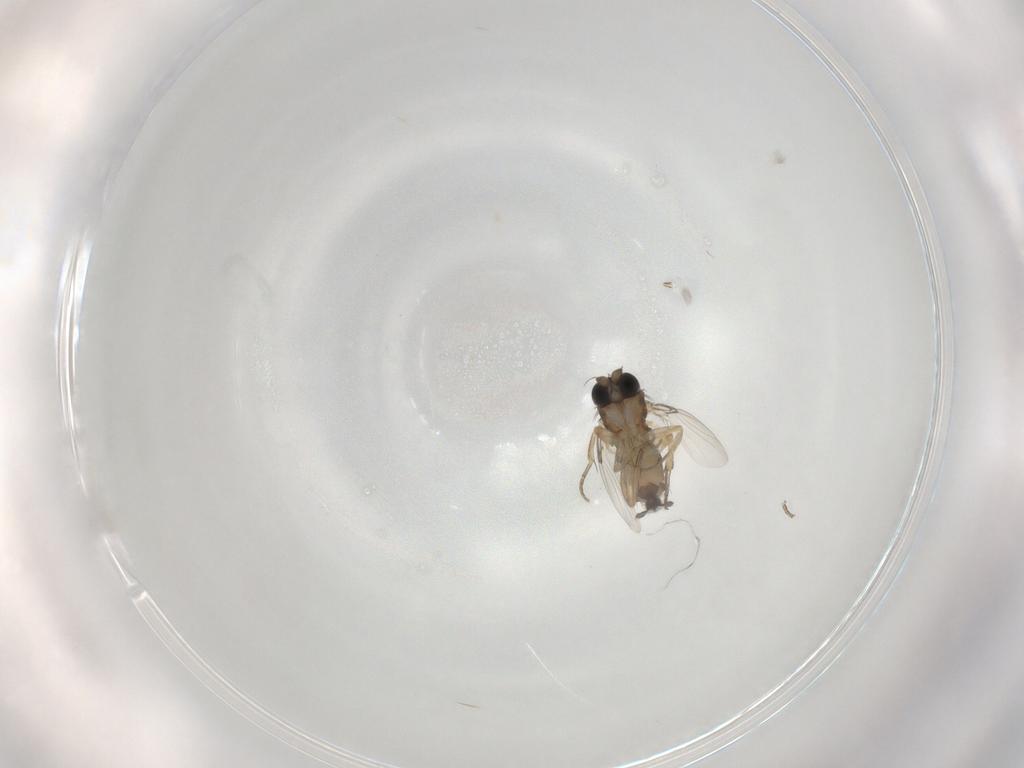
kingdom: Animalia
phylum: Arthropoda
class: Insecta
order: Diptera
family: Phoridae
